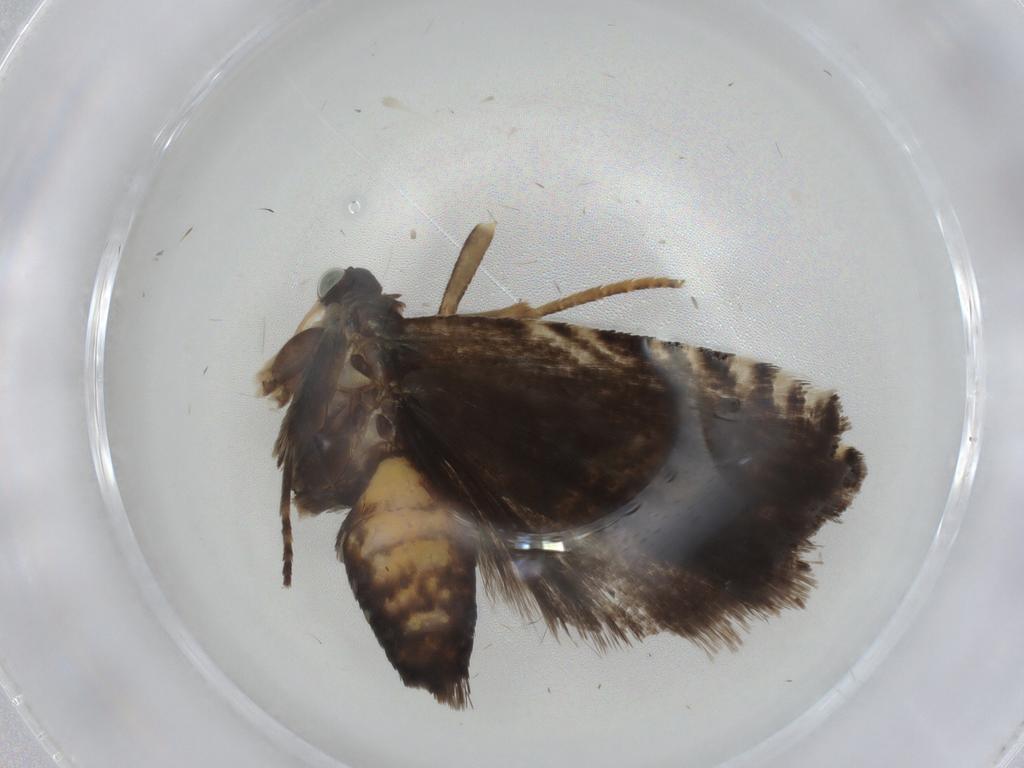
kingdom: Animalia
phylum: Arthropoda
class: Insecta
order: Lepidoptera
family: Tortricidae
